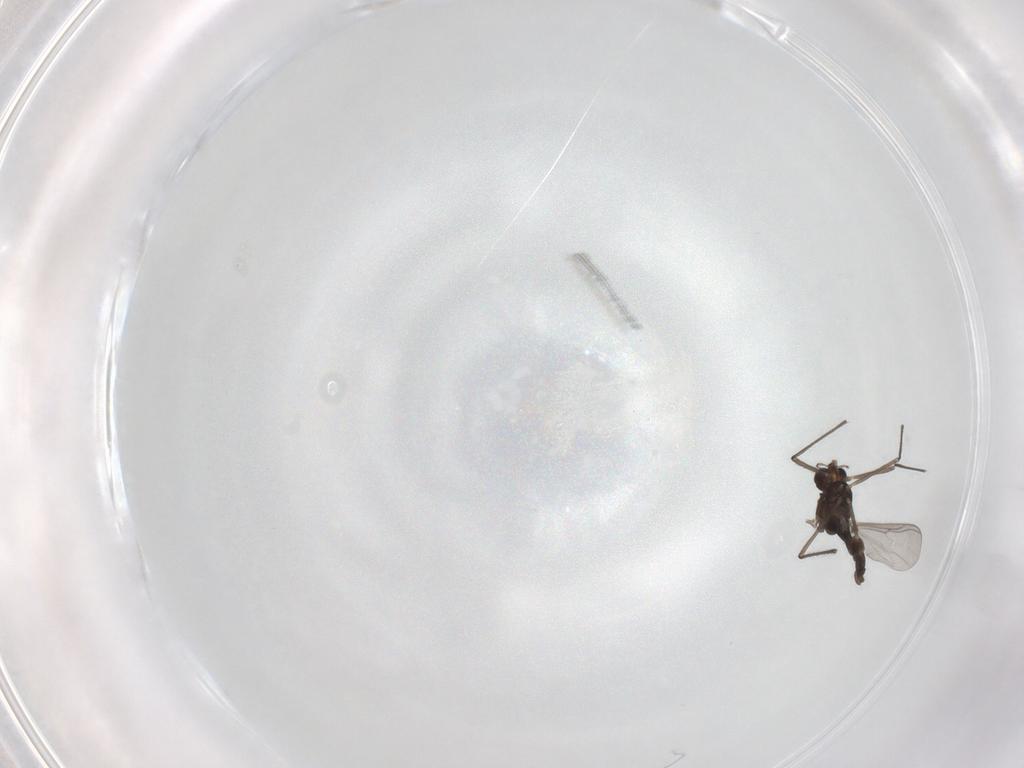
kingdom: Animalia
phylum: Arthropoda
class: Insecta
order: Diptera
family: Chironomidae
